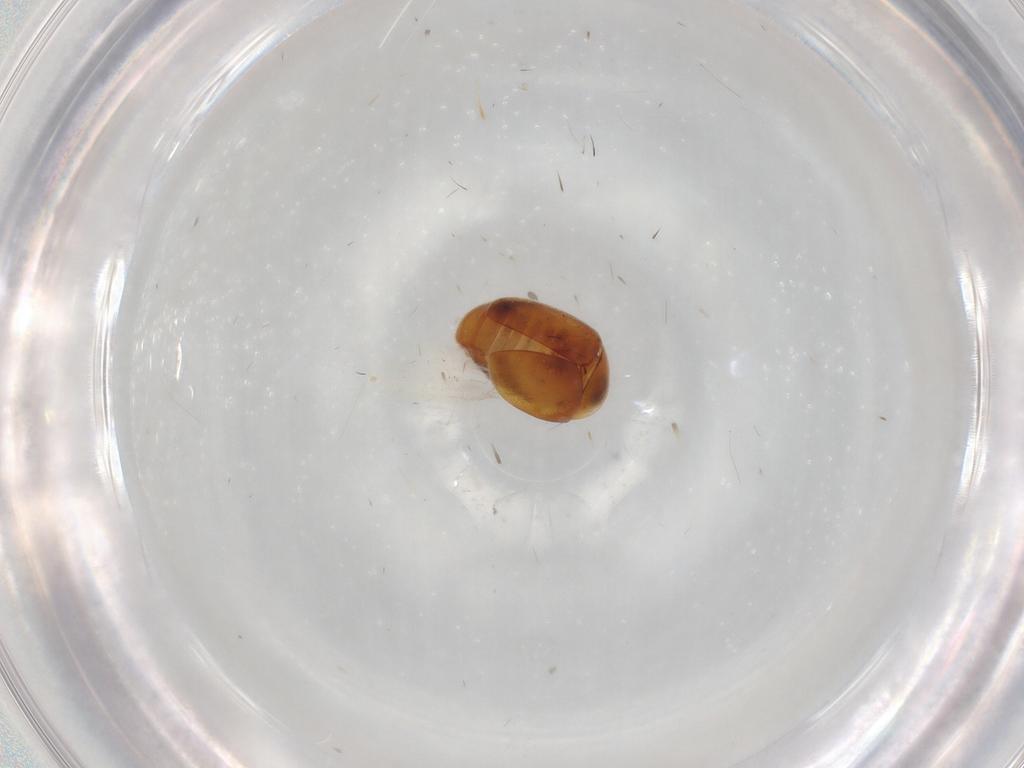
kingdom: Animalia
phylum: Arthropoda
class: Insecta
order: Coleoptera
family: Corylophidae
